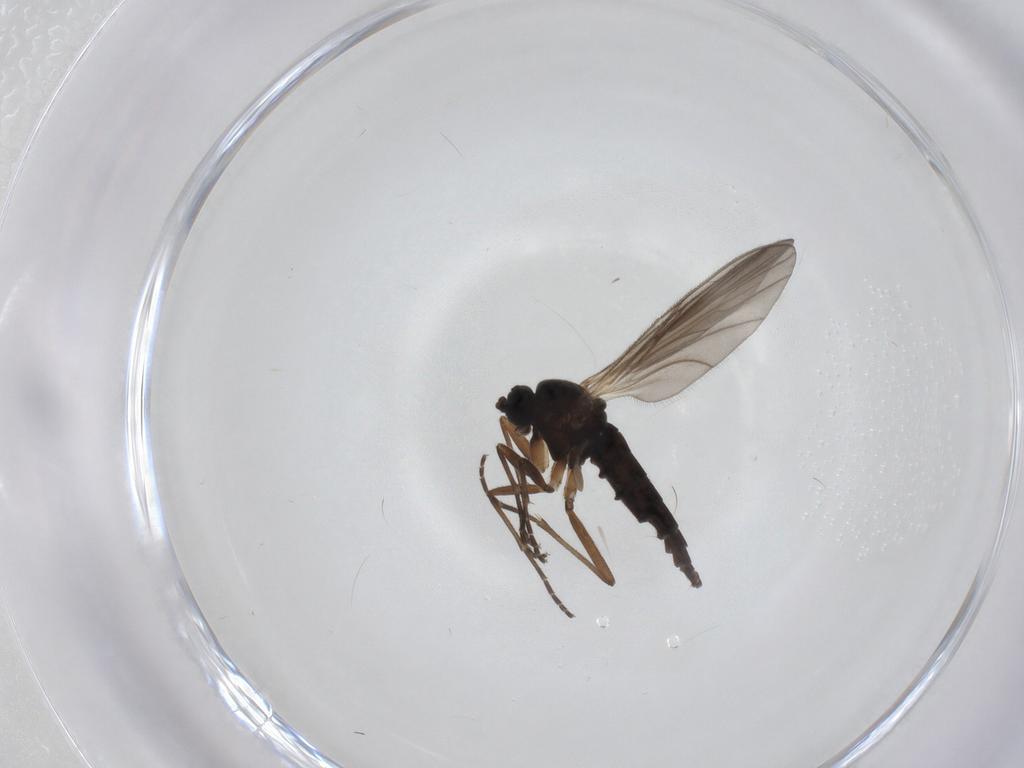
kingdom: Animalia
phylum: Arthropoda
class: Insecta
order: Diptera
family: Sciaridae
